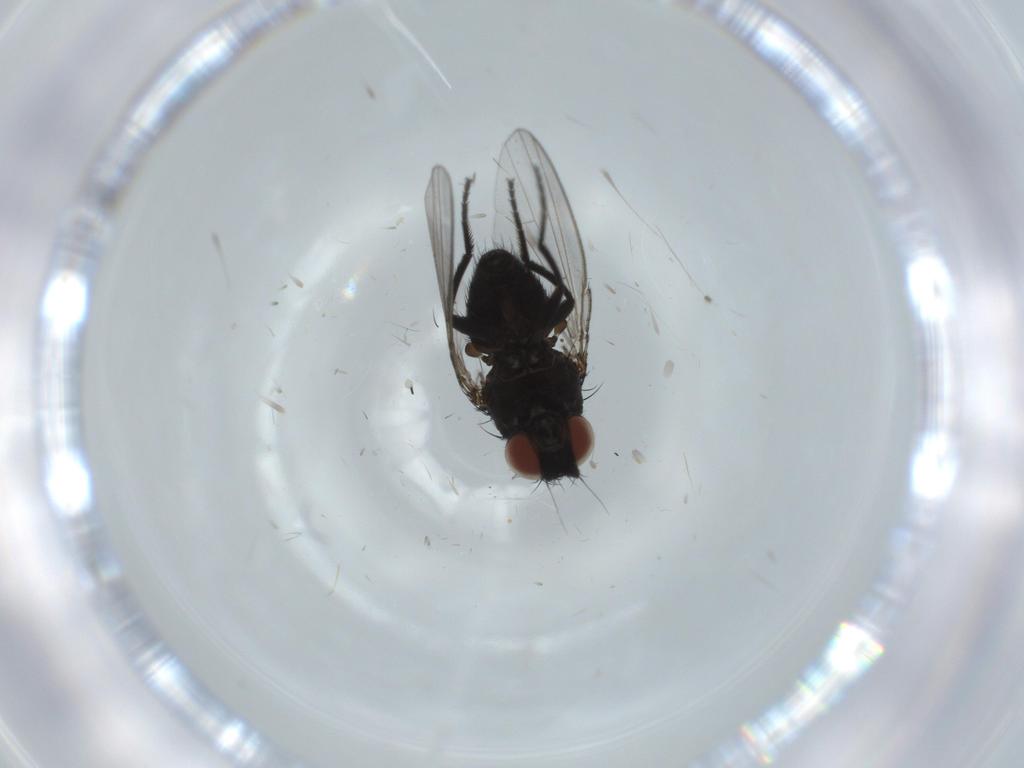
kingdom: Animalia
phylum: Arthropoda
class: Insecta
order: Diptera
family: Milichiidae
